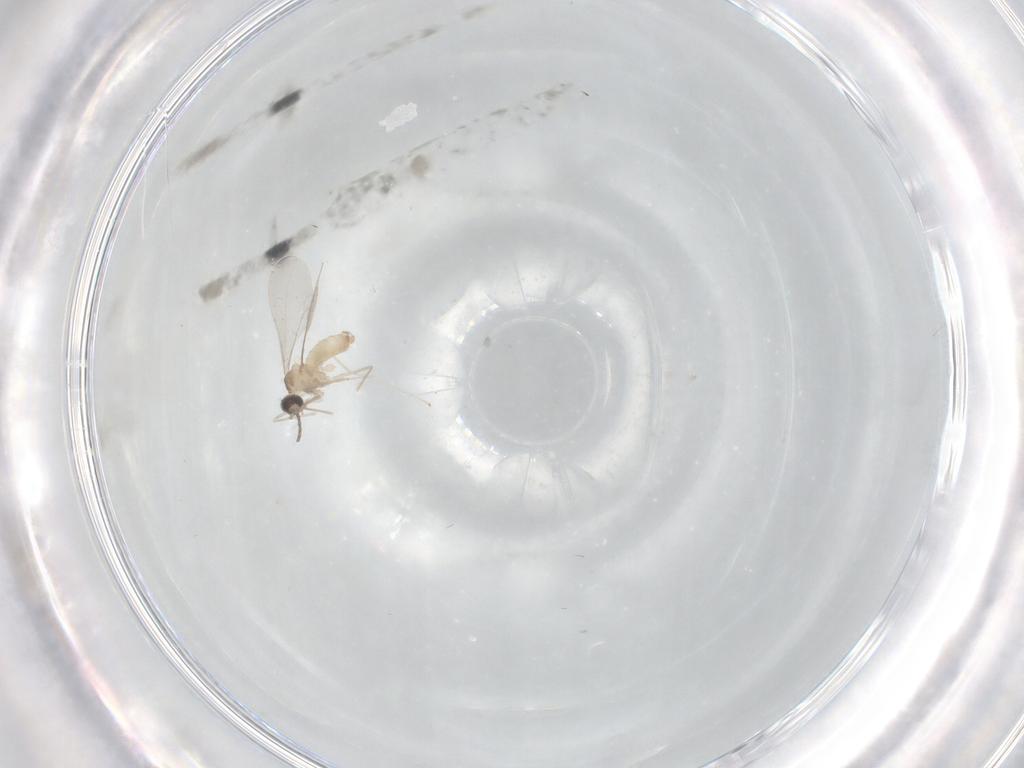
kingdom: Animalia
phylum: Arthropoda
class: Insecta
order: Diptera
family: Cecidomyiidae
